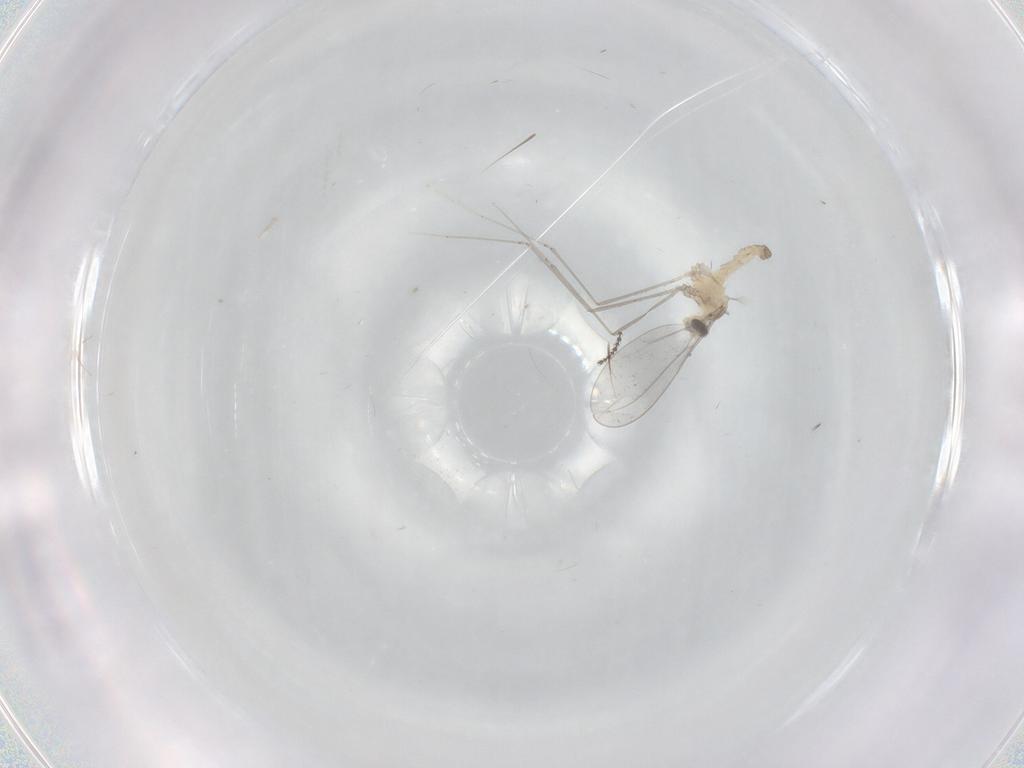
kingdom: Animalia
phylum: Arthropoda
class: Insecta
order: Diptera
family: Cecidomyiidae
